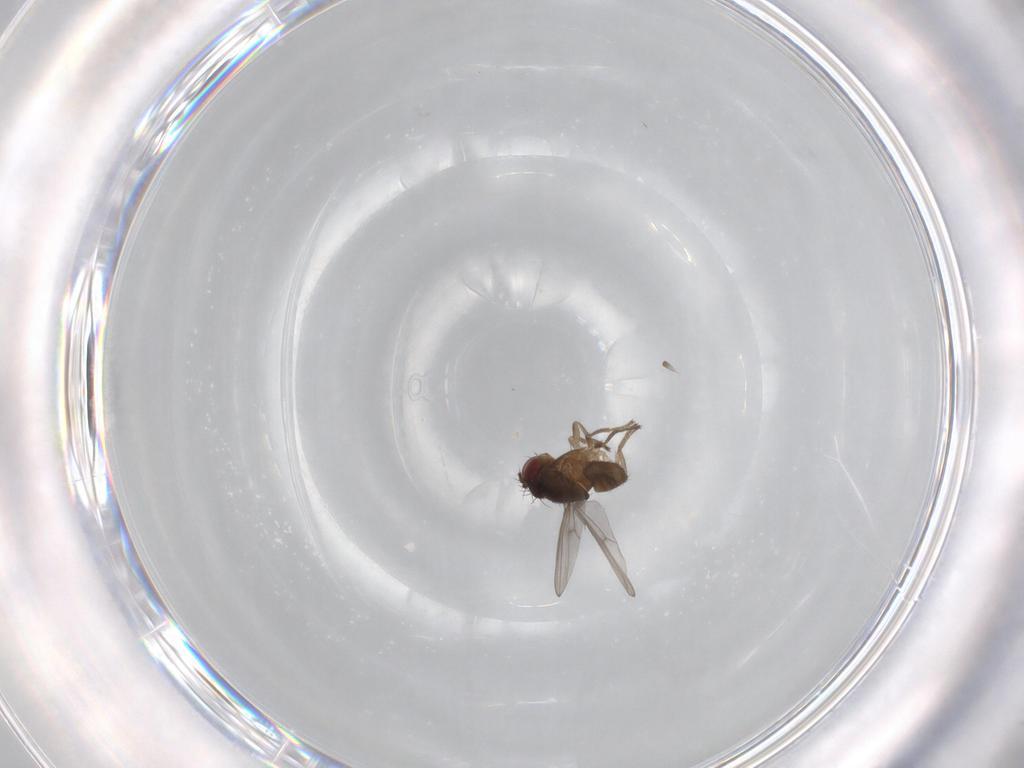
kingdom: Animalia
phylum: Arthropoda
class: Insecta
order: Diptera
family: Ephydridae
